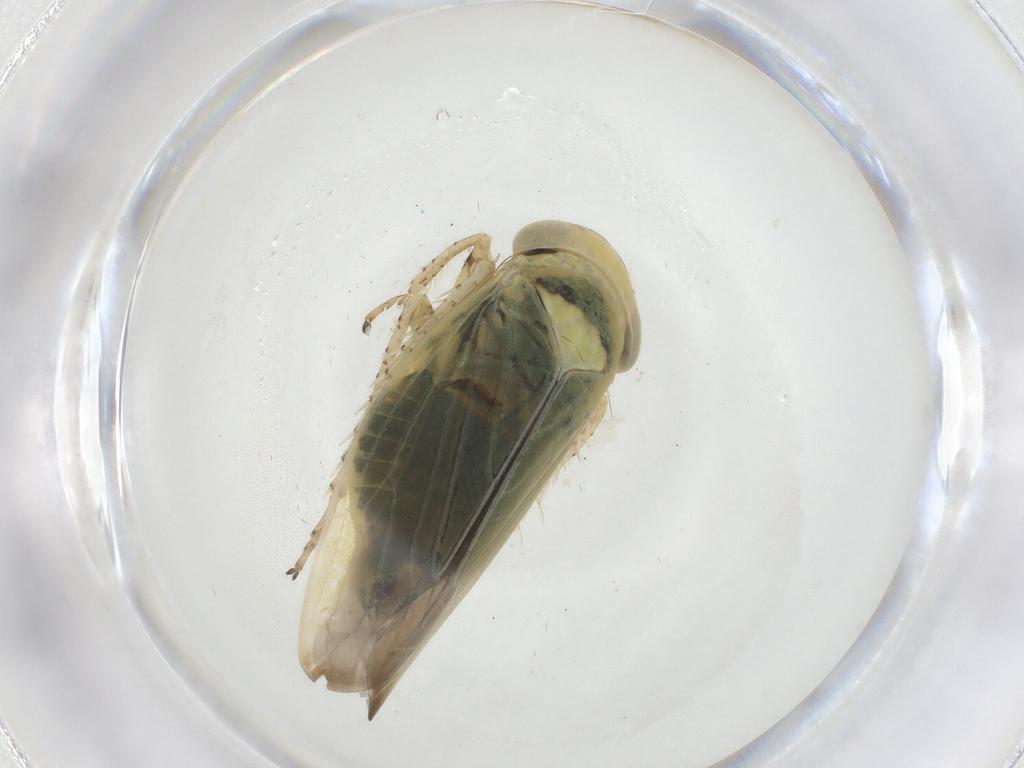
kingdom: Animalia
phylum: Arthropoda
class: Insecta
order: Hemiptera
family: Cicadellidae
